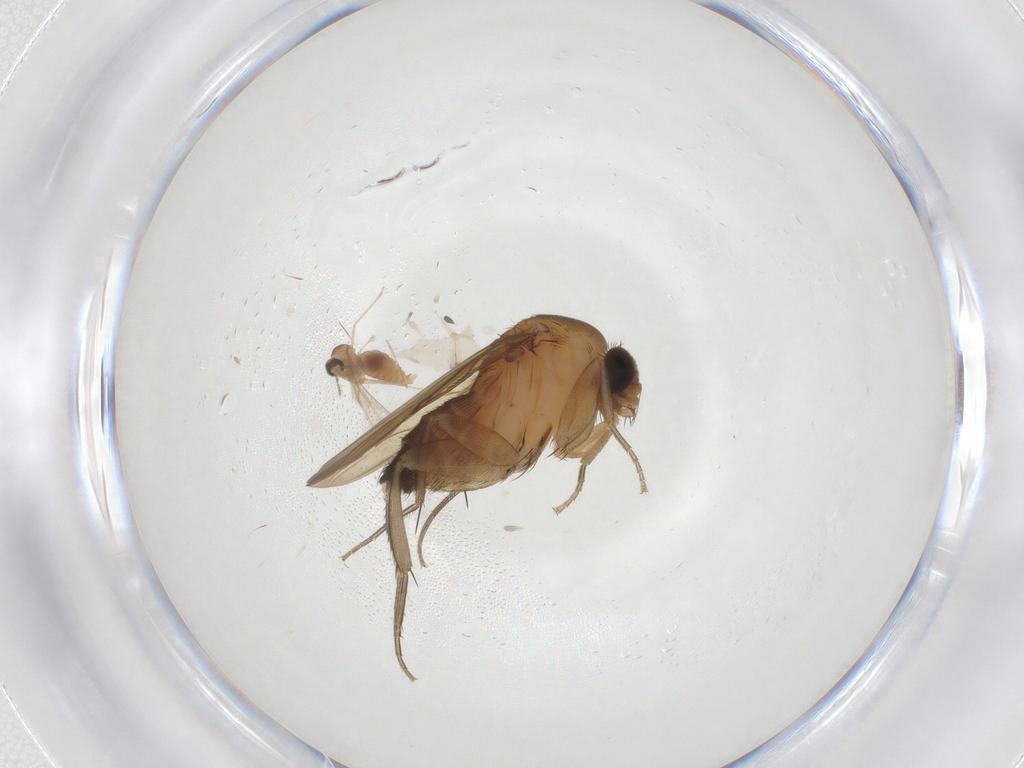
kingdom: Animalia
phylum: Arthropoda
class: Insecta
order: Diptera
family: Phoridae
